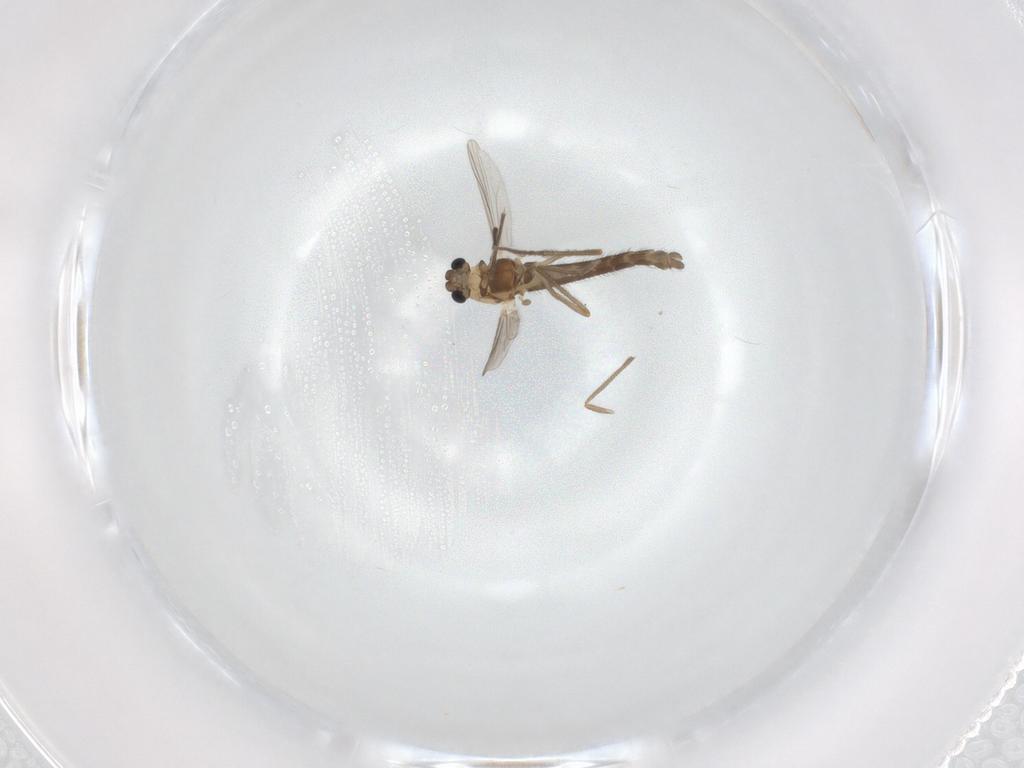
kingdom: Animalia
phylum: Arthropoda
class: Insecta
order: Diptera
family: Chironomidae
